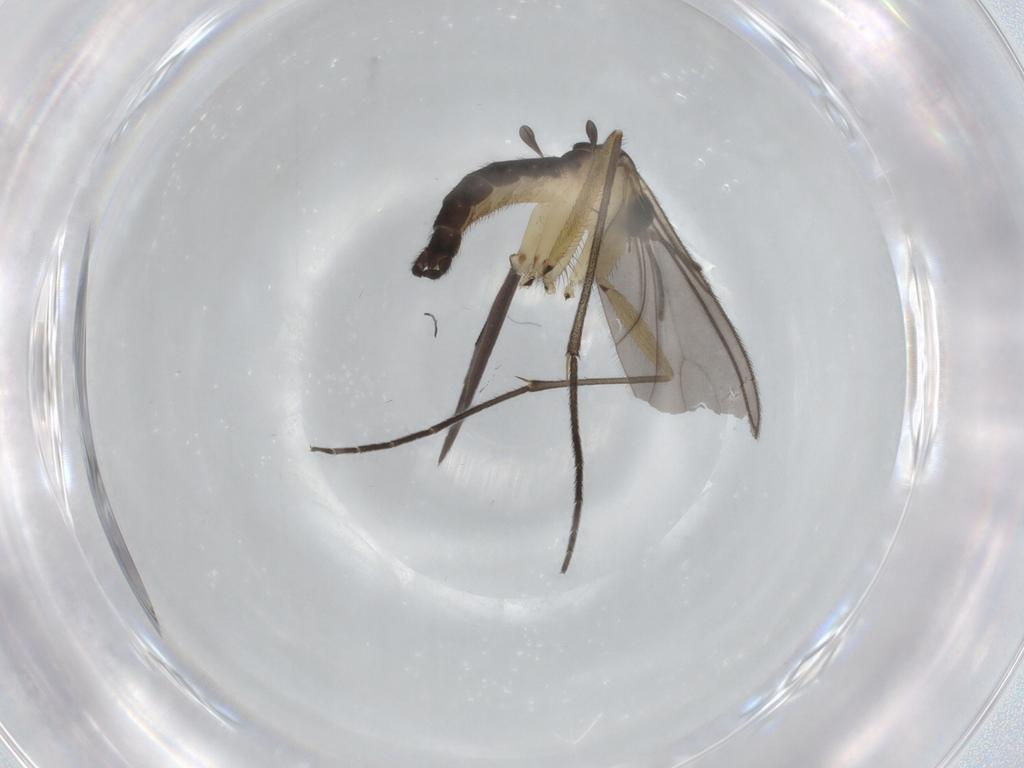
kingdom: Animalia
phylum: Arthropoda
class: Insecta
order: Diptera
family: Sciaridae
